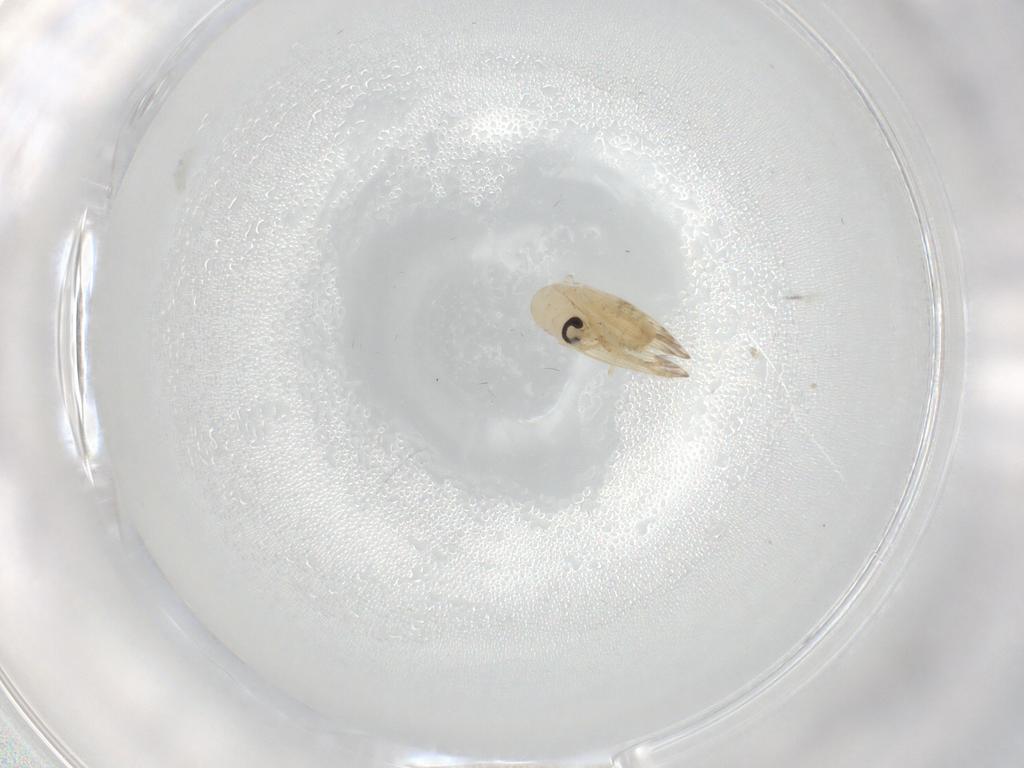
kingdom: Animalia
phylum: Arthropoda
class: Insecta
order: Diptera
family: Psychodidae
